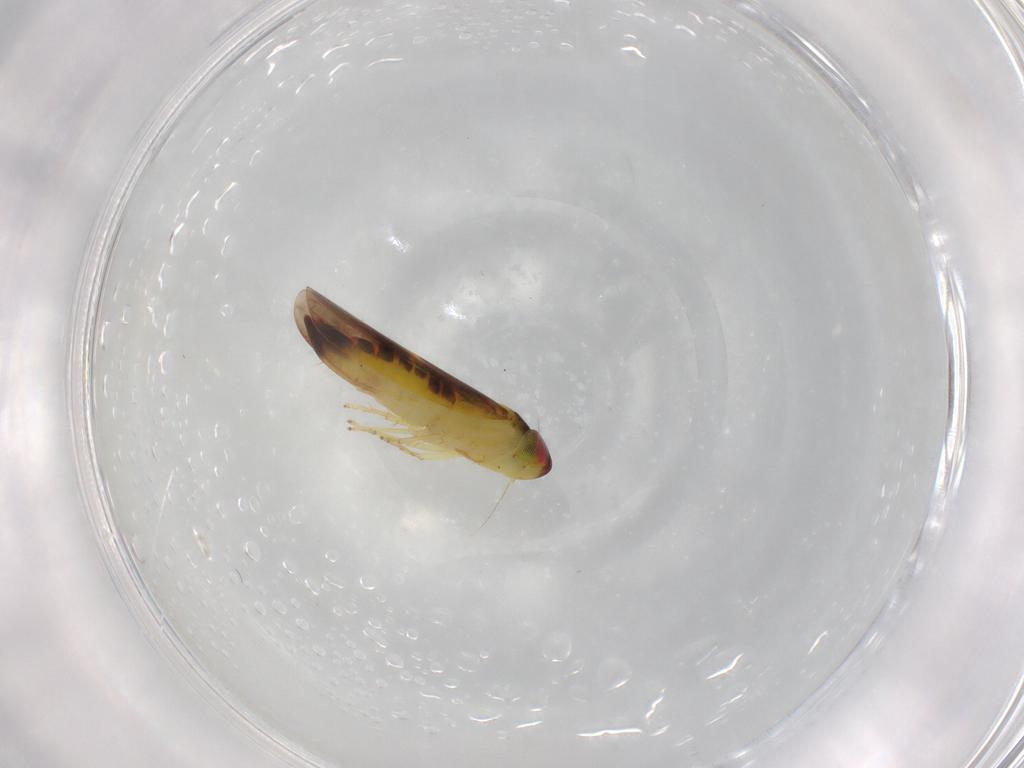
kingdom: Animalia
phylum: Arthropoda
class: Insecta
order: Hemiptera
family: Cicadellidae
